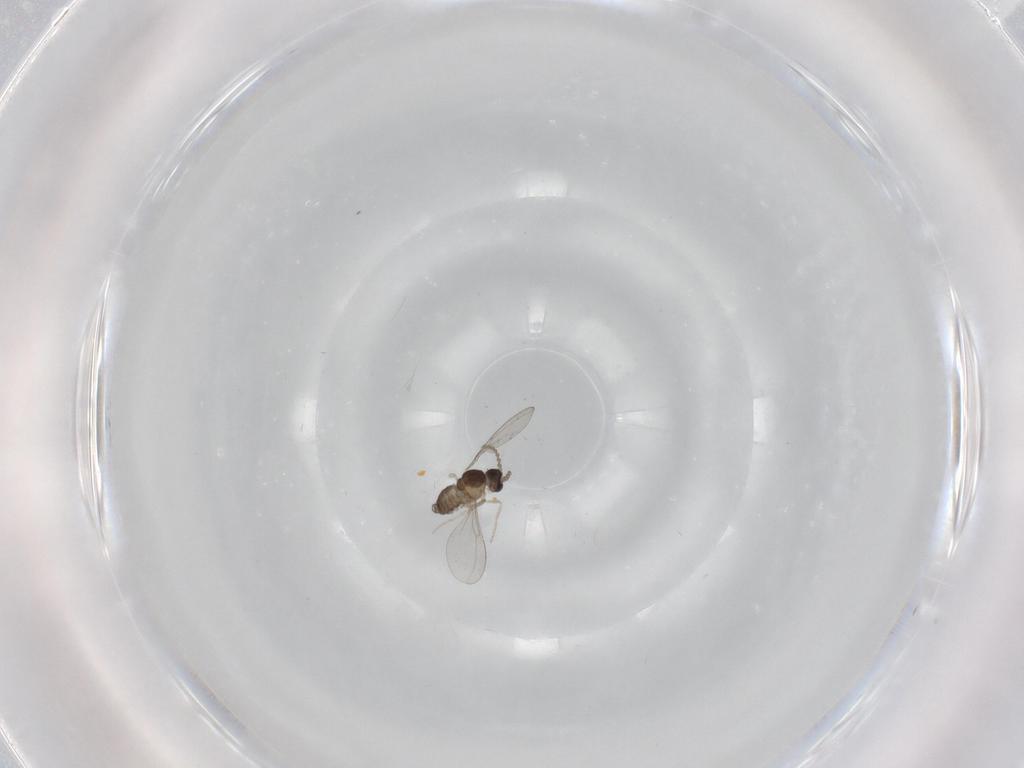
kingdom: Animalia
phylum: Arthropoda
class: Insecta
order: Diptera
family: Cecidomyiidae
